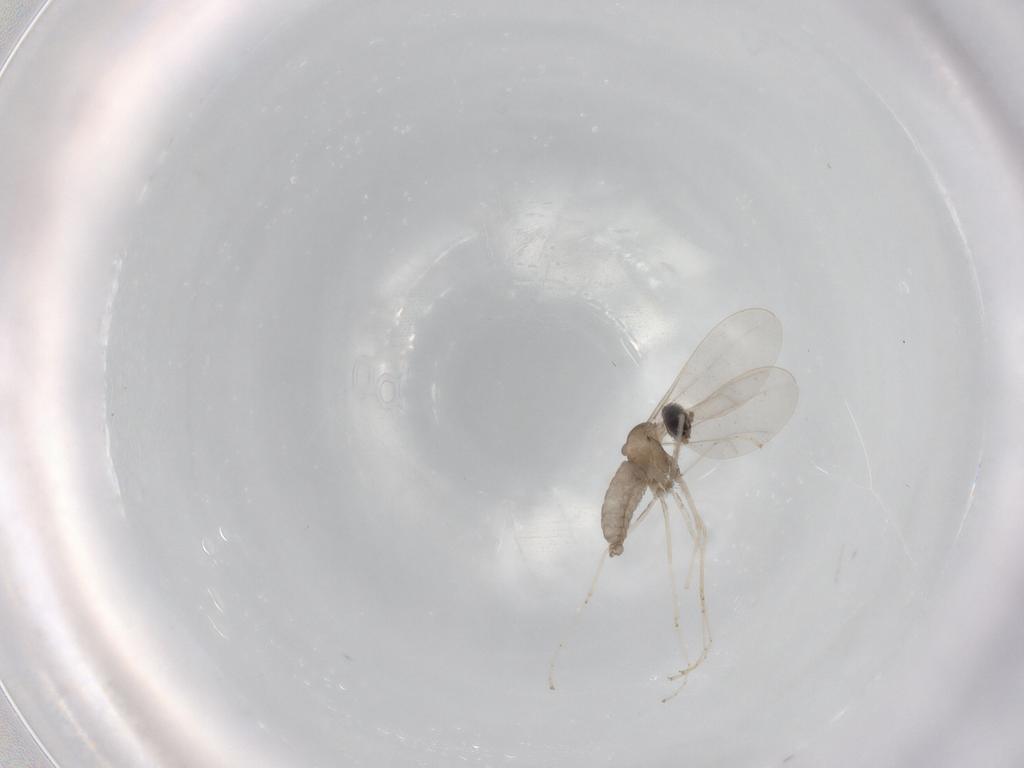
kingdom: Animalia
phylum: Arthropoda
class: Insecta
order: Diptera
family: Cecidomyiidae
